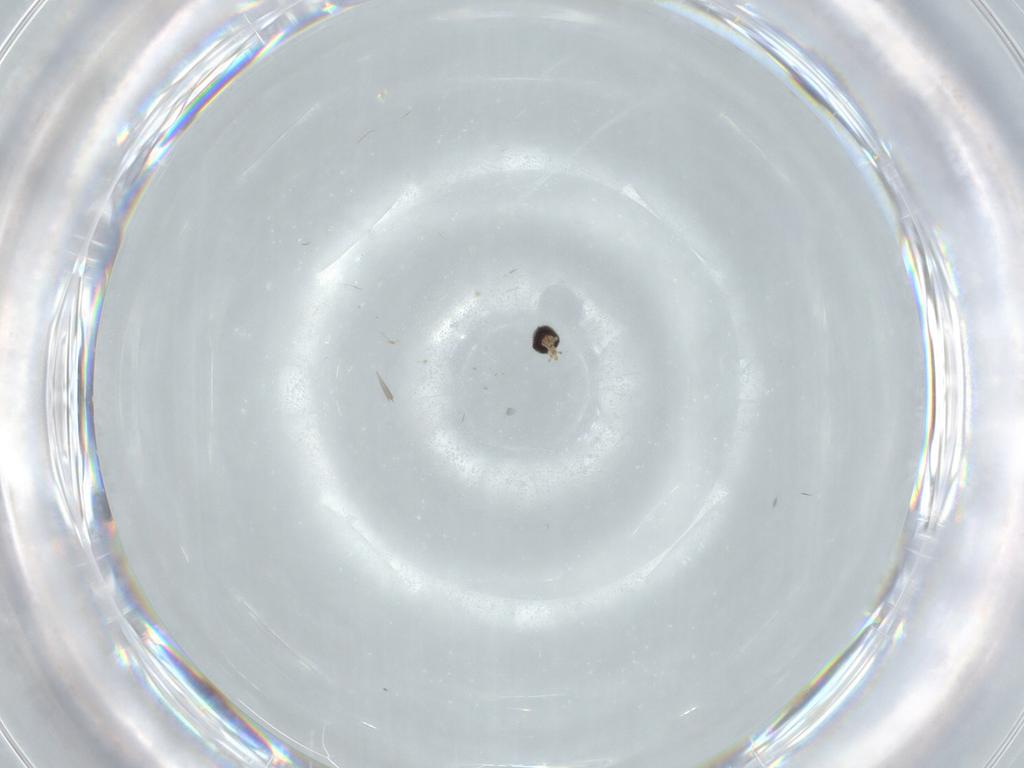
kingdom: Animalia
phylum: Arthropoda
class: Insecta
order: Diptera
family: Cecidomyiidae
